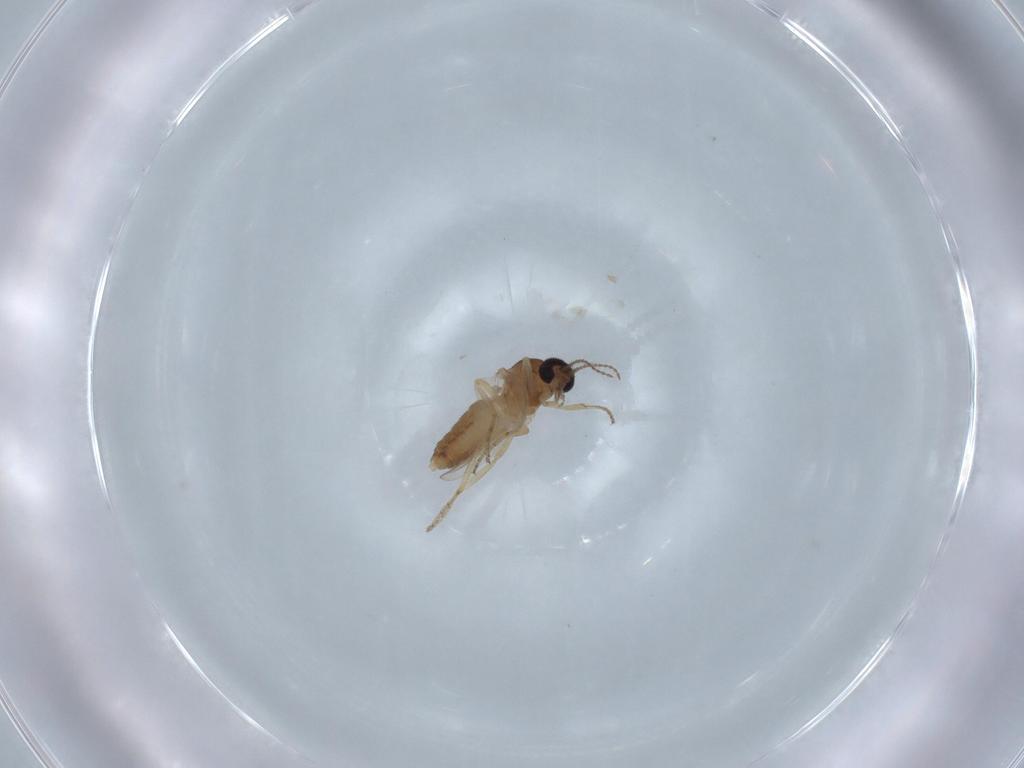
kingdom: Animalia
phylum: Arthropoda
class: Insecta
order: Diptera
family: Ceratopogonidae
